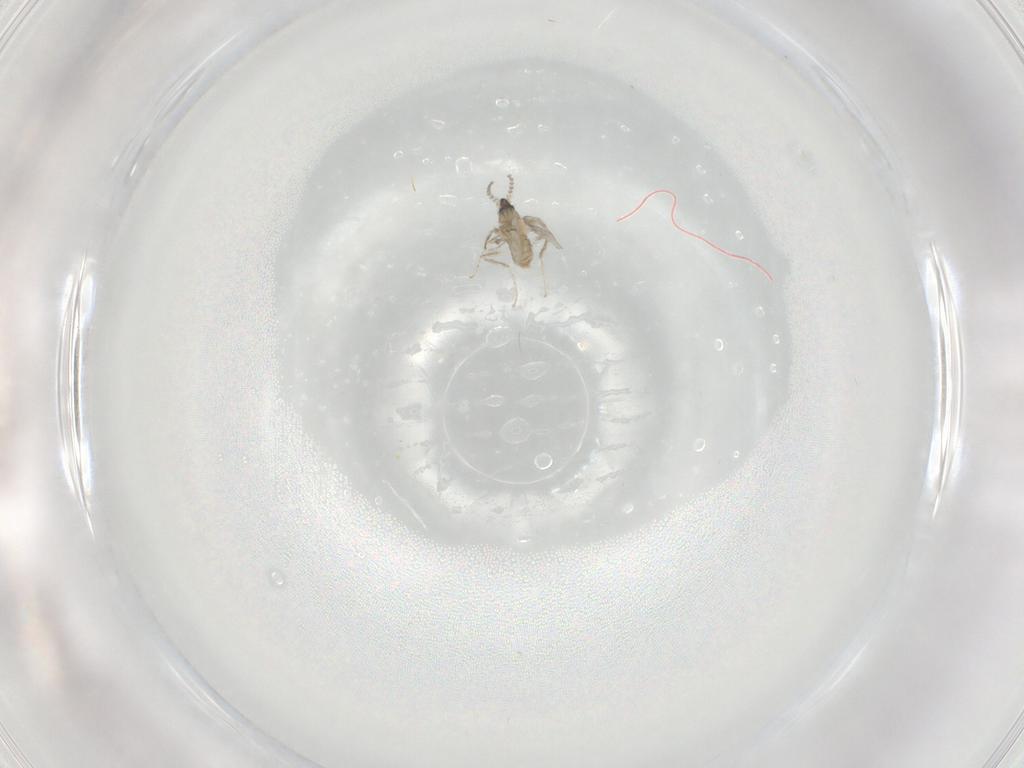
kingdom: Animalia
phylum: Arthropoda
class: Insecta
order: Diptera
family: Cecidomyiidae
